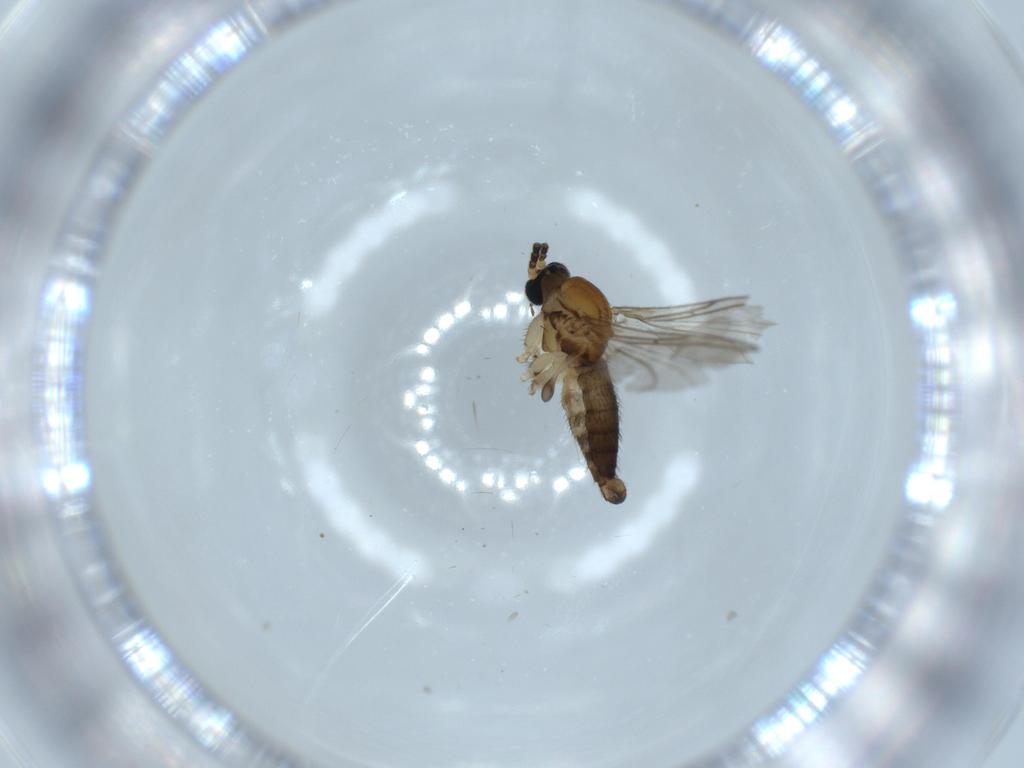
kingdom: Animalia
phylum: Arthropoda
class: Insecta
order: Diptera
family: Sciaridae
